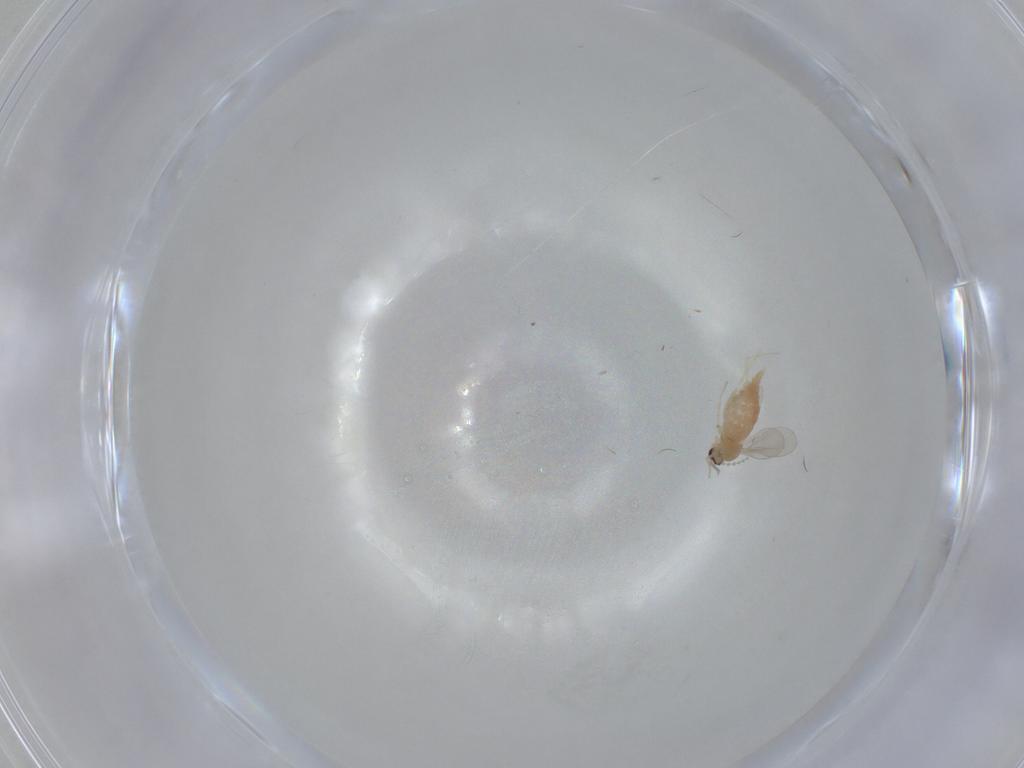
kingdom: Animalia
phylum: Arthropoda
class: Insecta
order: Diptera
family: Cecidomyiidae
